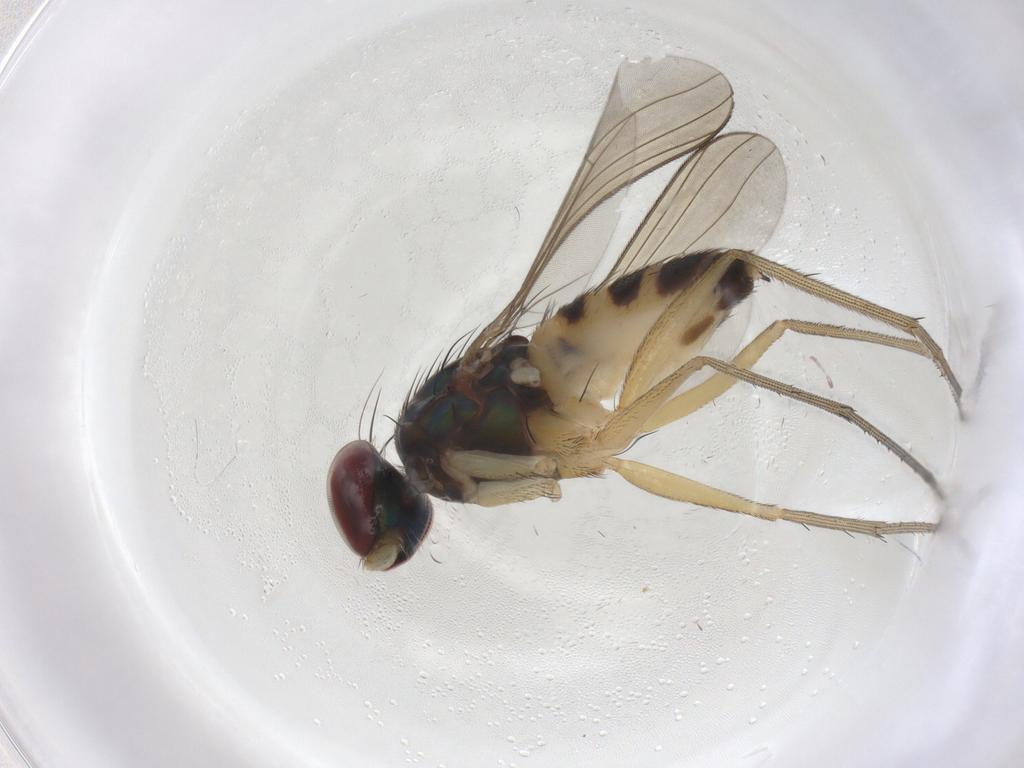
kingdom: Animalia
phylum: Arthropoda
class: Insecta
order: Diptera
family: Dolichopodidae
